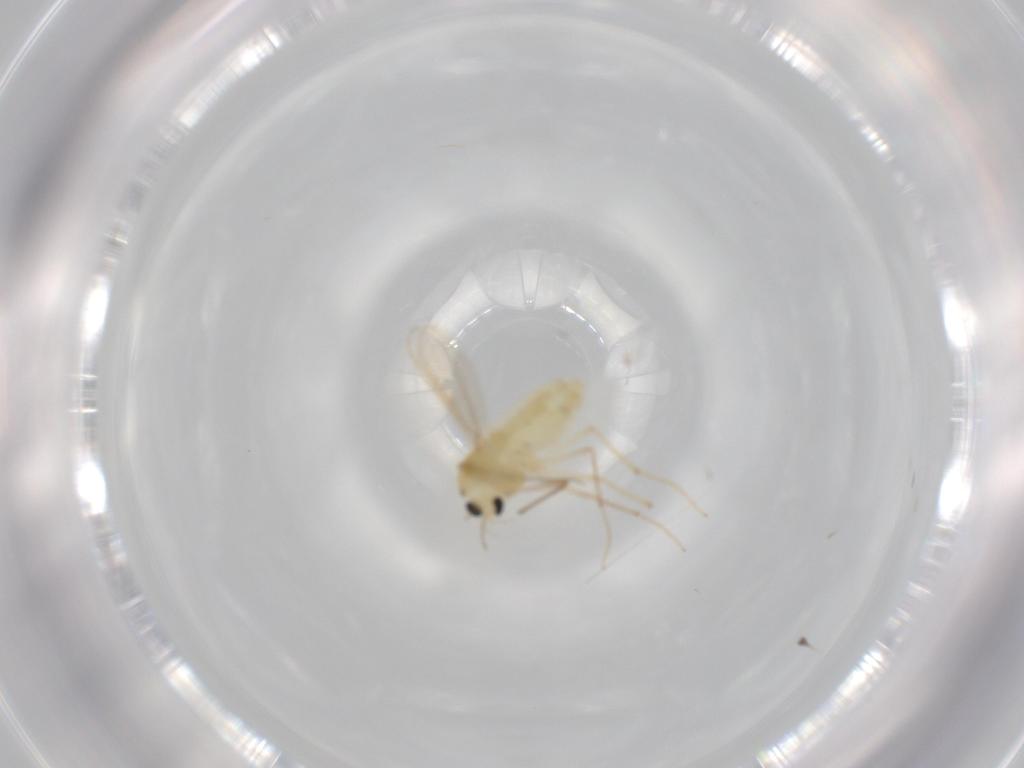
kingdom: Animalia
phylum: Arthropoda
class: Insecta
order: Diptera
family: Chironomidae
